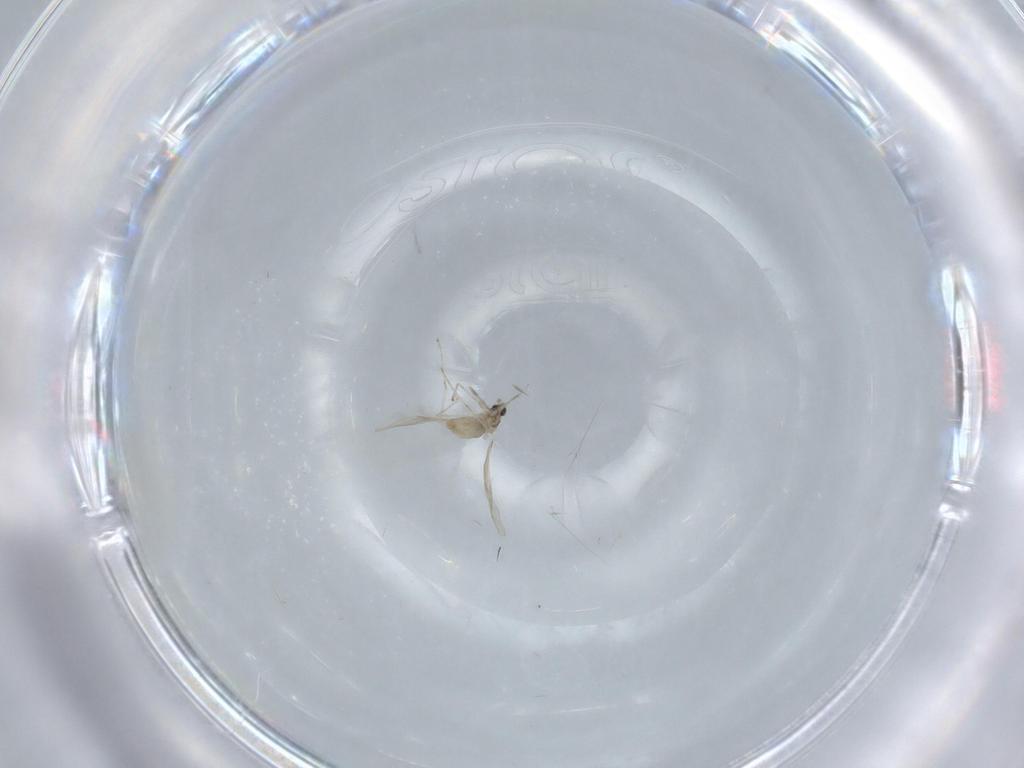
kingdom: Animalia
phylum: Arthropoda
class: Insecta
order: Diptera
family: Cecidomyiidae
